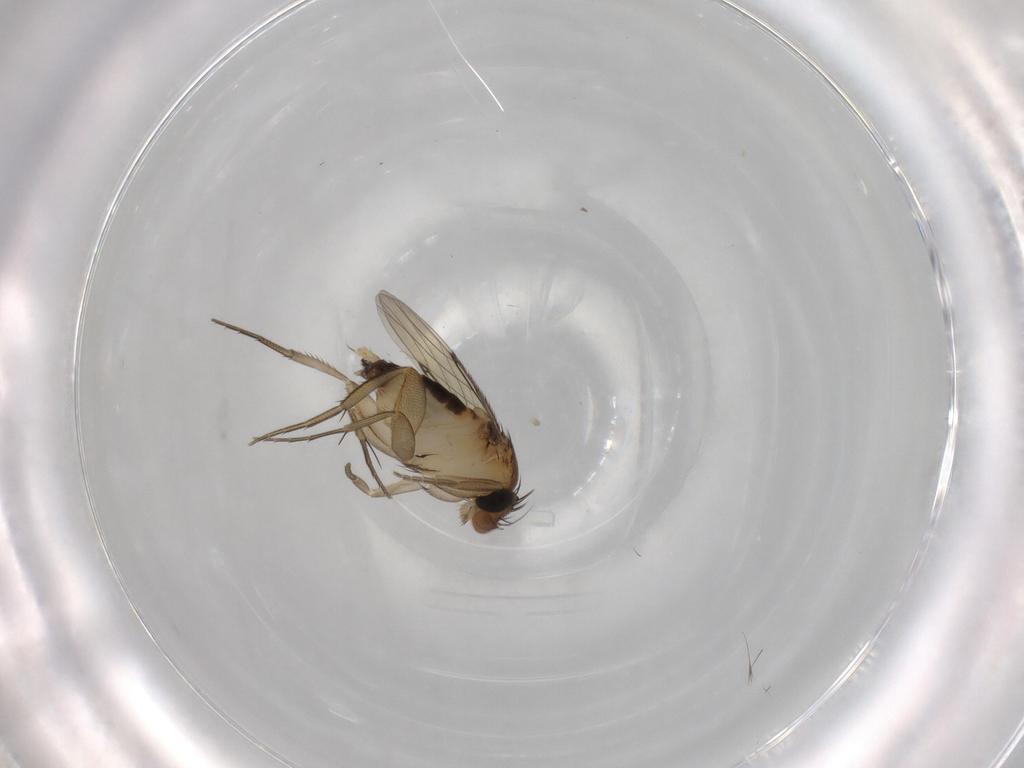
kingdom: Animalia
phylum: Arthropoda
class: Insecta
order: Diptera
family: Phoridae
